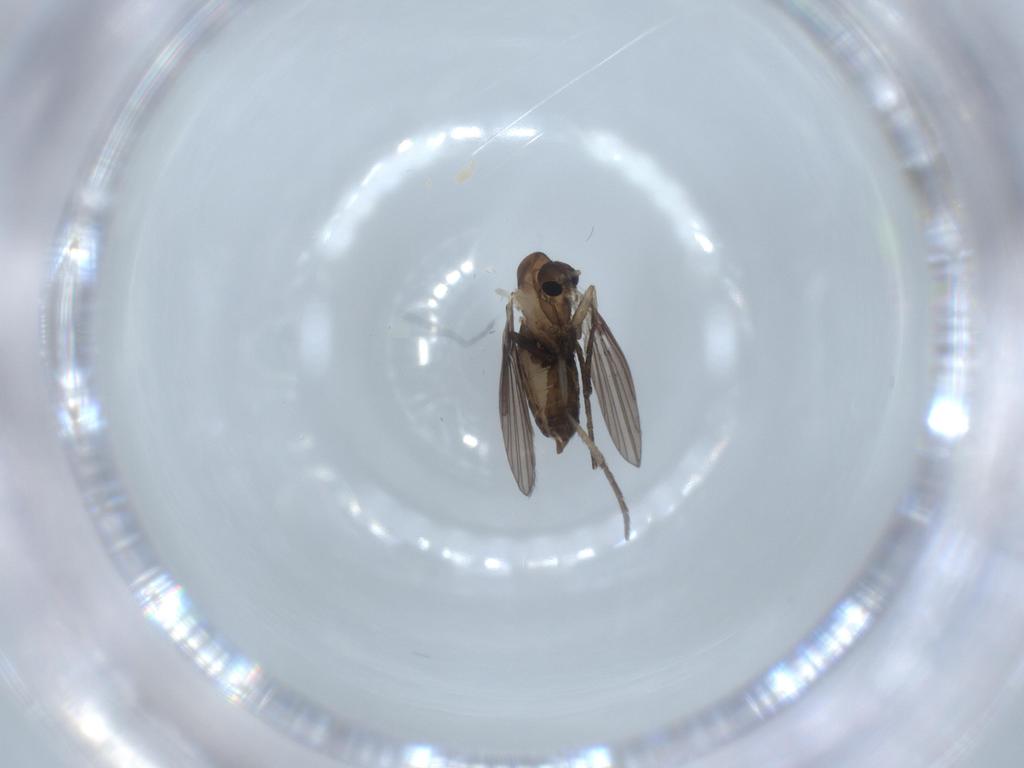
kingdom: Animalia
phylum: Arthropoda
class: Insecta
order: Diptera
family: Psychodidae
